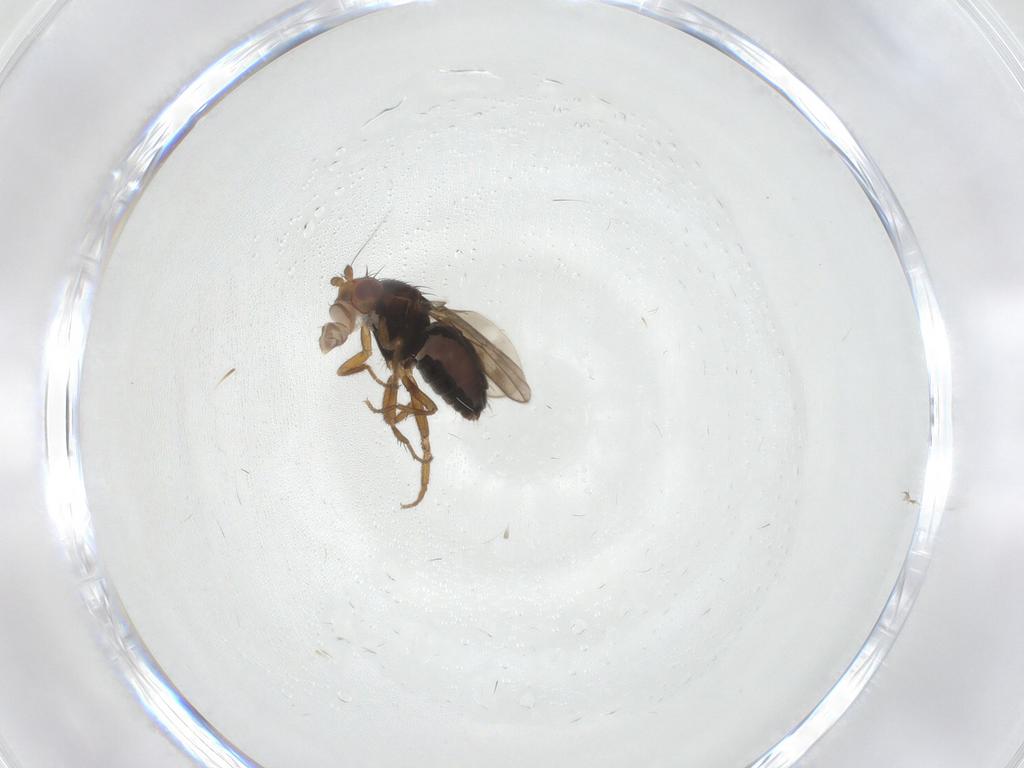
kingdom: Animalia
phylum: Arthropoda
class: Insecta
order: Diptera
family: Sphaeroceridae
